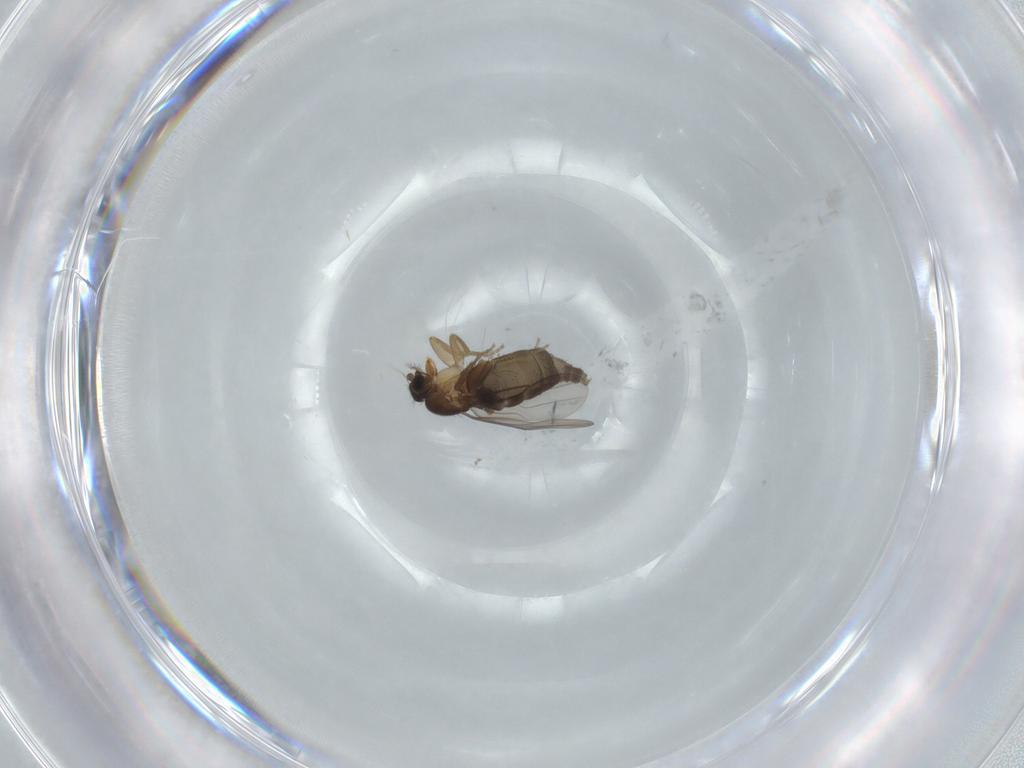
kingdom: Animalia
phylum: Arthropoda
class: Insecta
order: Diptera
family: Phoridae
